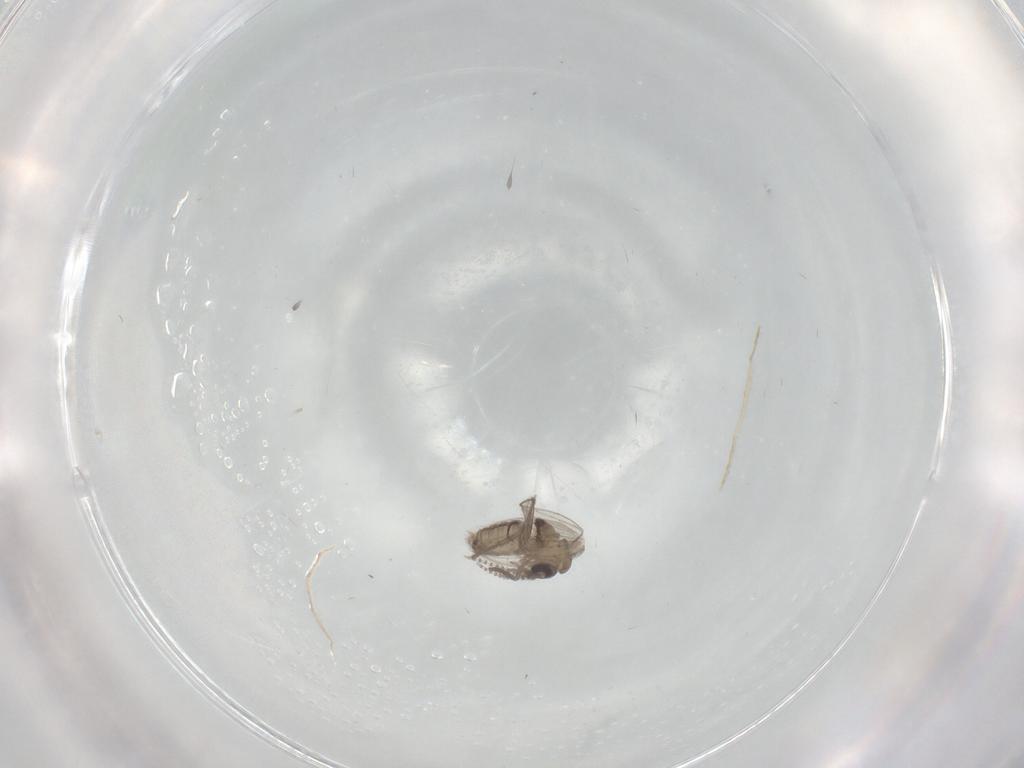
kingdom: Animalia
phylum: Arthropoda
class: Insecta
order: Diptera
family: Psychodidae
